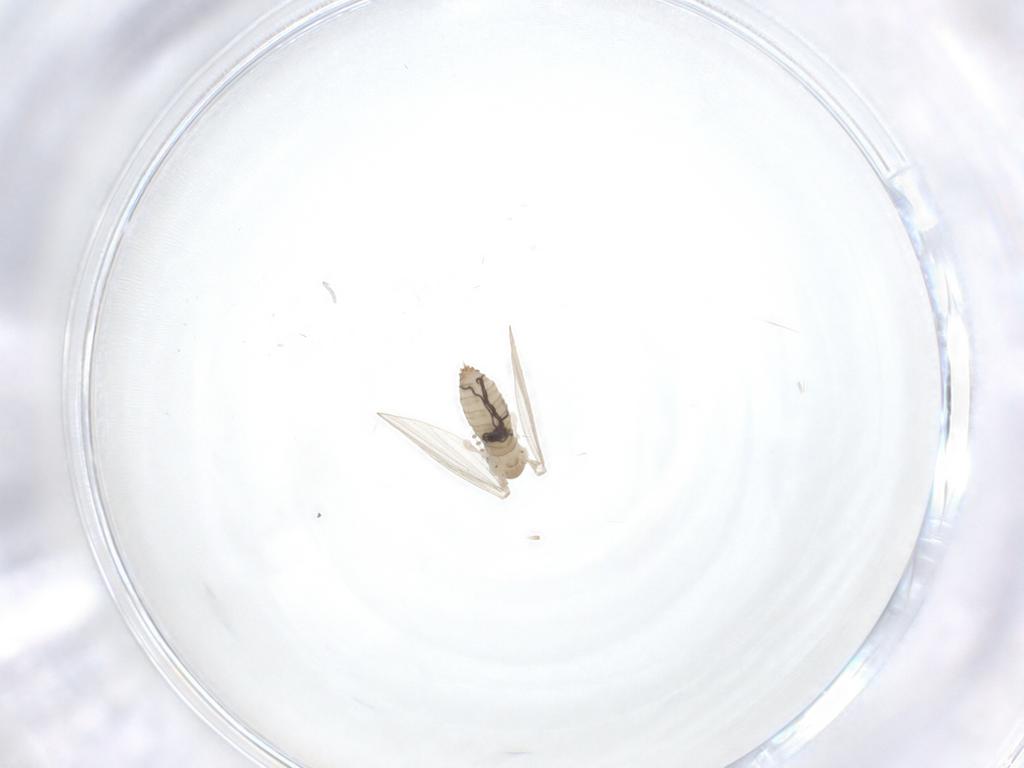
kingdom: Animalia
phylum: Arthropoda
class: Insecta
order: Diptera
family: Psychodidae
